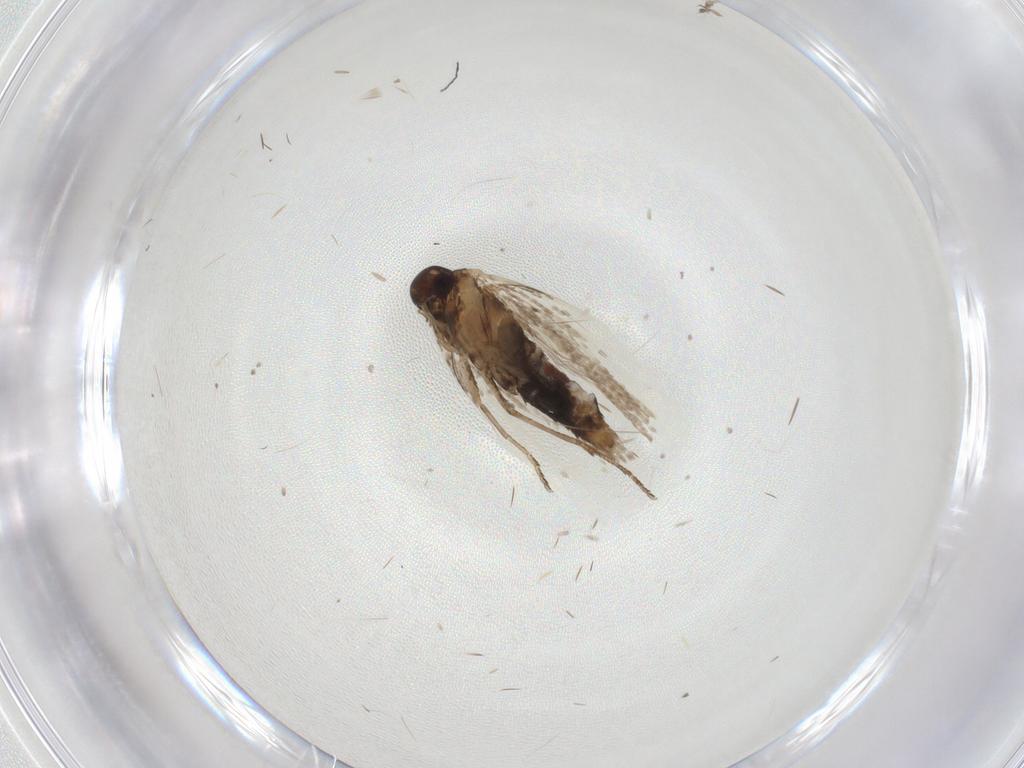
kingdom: Animalia
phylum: Arthropoda
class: Insecta
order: Lepidoptera
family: Gelechiidae
